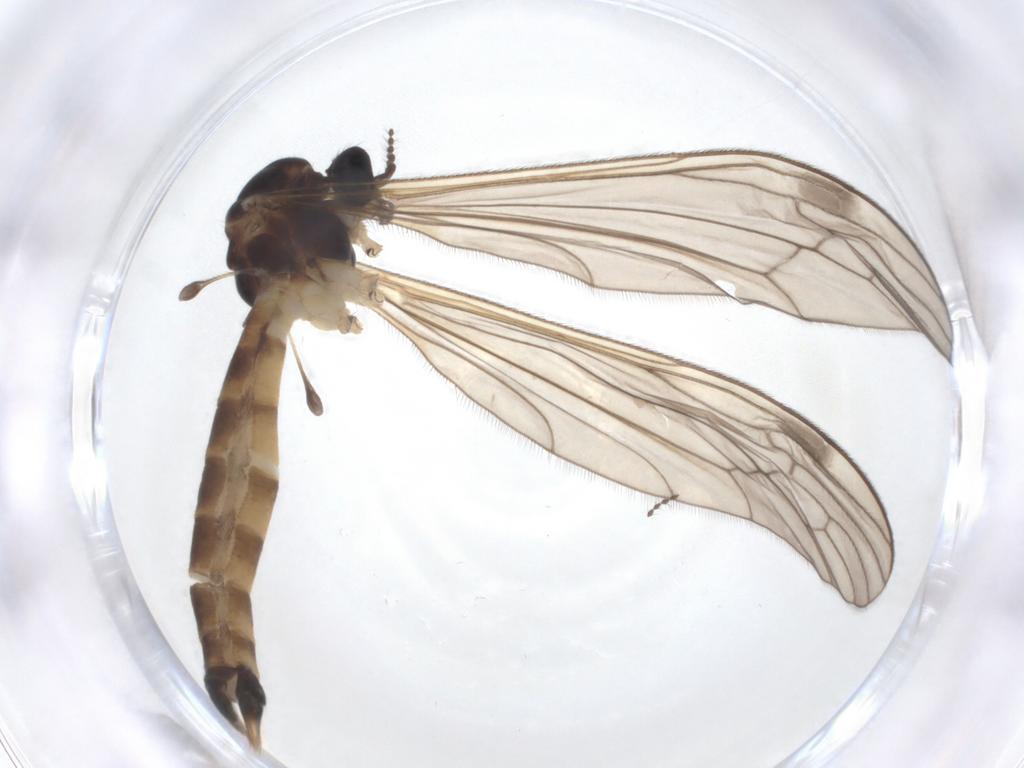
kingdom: Animalia
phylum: Arthropoda
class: Insecta
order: Diptera
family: Limoniidae
